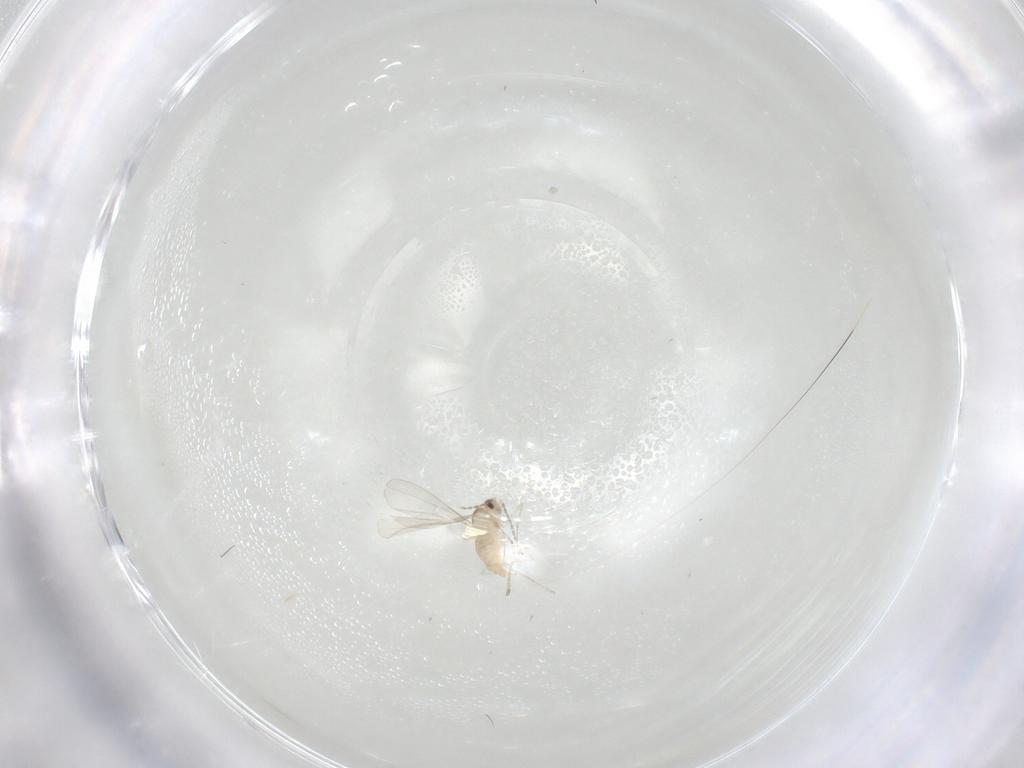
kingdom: Animalia
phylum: Arthropoda
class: Insecta
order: Diptera
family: Cecidomyiidae
